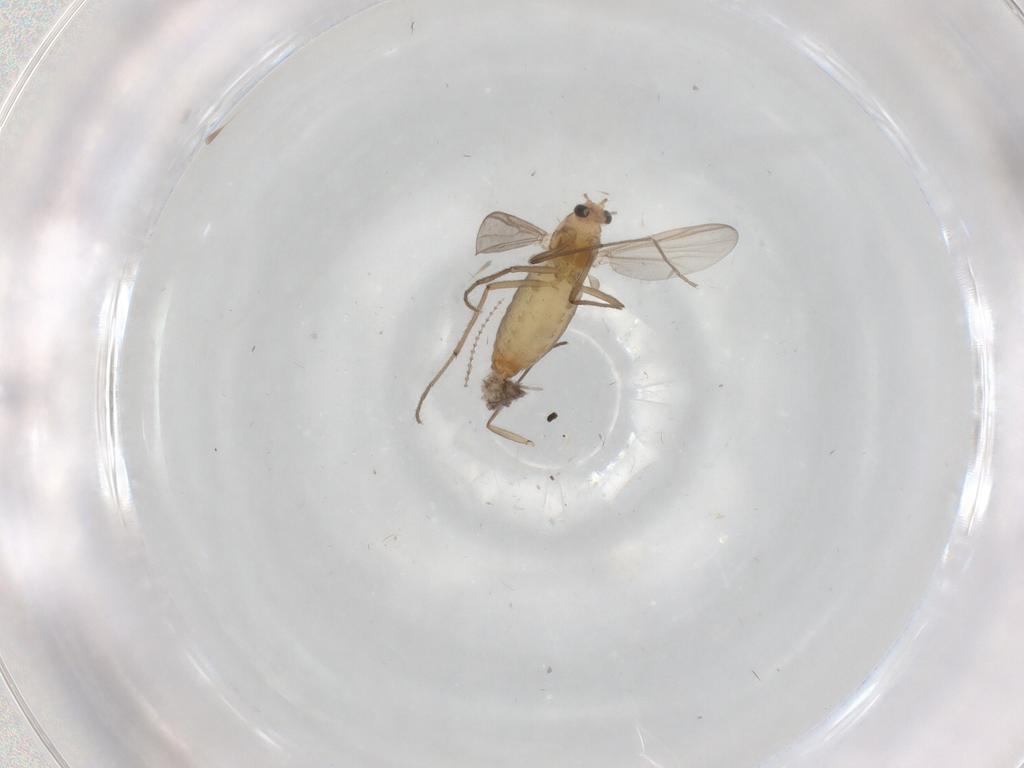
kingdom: Animalia
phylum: Arthropoda
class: Insecta
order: Diptera
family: Chironomidae
